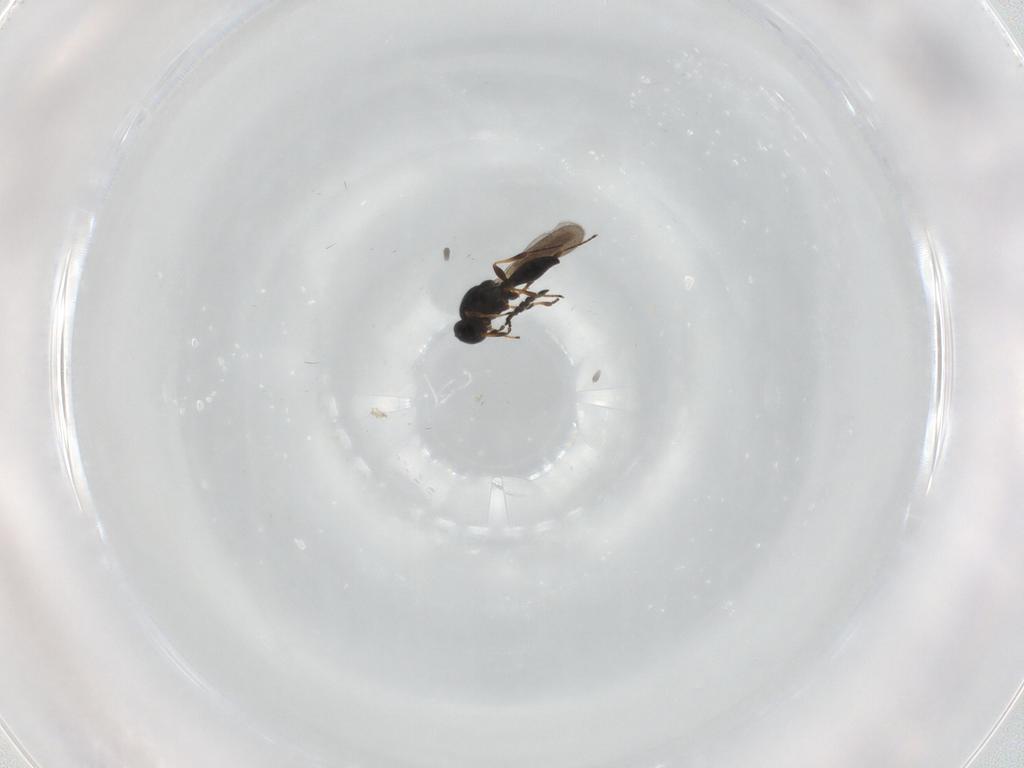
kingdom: Animalia
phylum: Arthropoda
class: Insecta
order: Hymenoptera
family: Platygastridae
